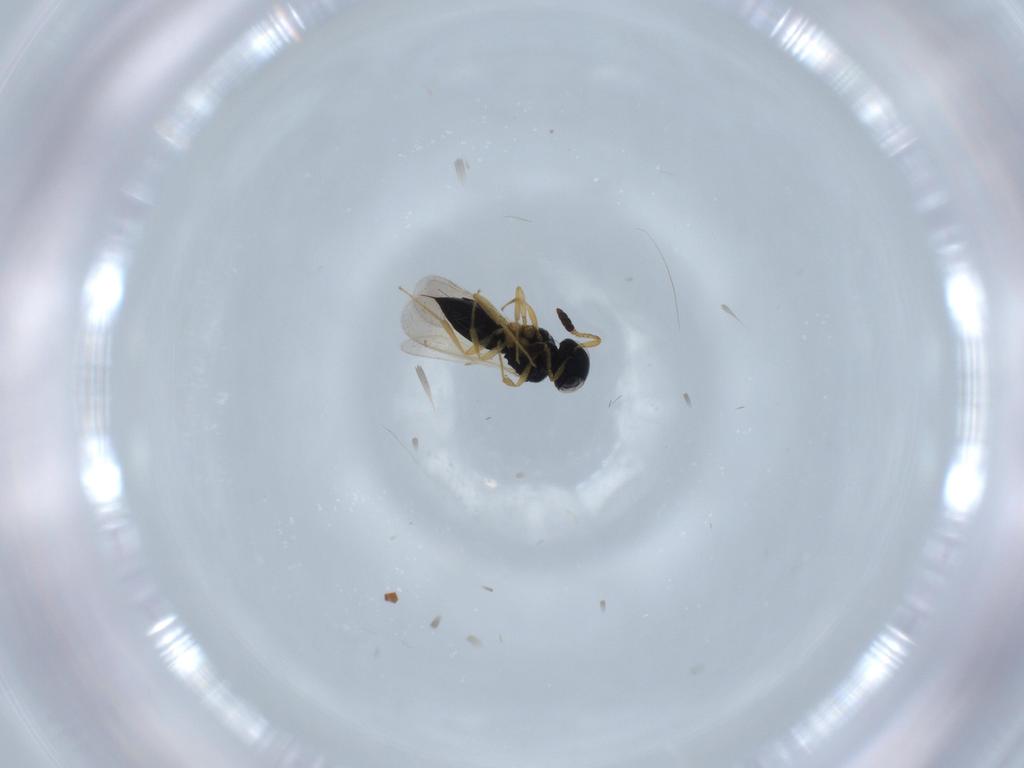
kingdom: Animalia
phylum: Arthropoda
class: Insecta
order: Hymenoptera
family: Scelionidae
